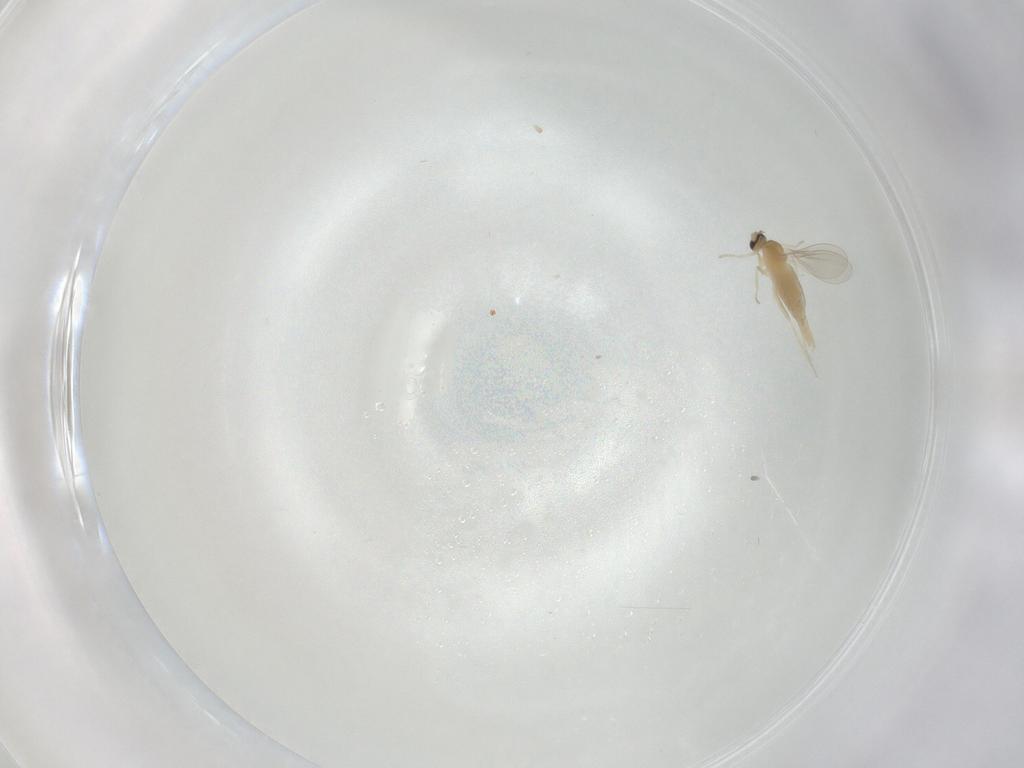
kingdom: Animalia
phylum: Arthropoda
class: Insecta
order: Diptera
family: Cecidomyiidae
